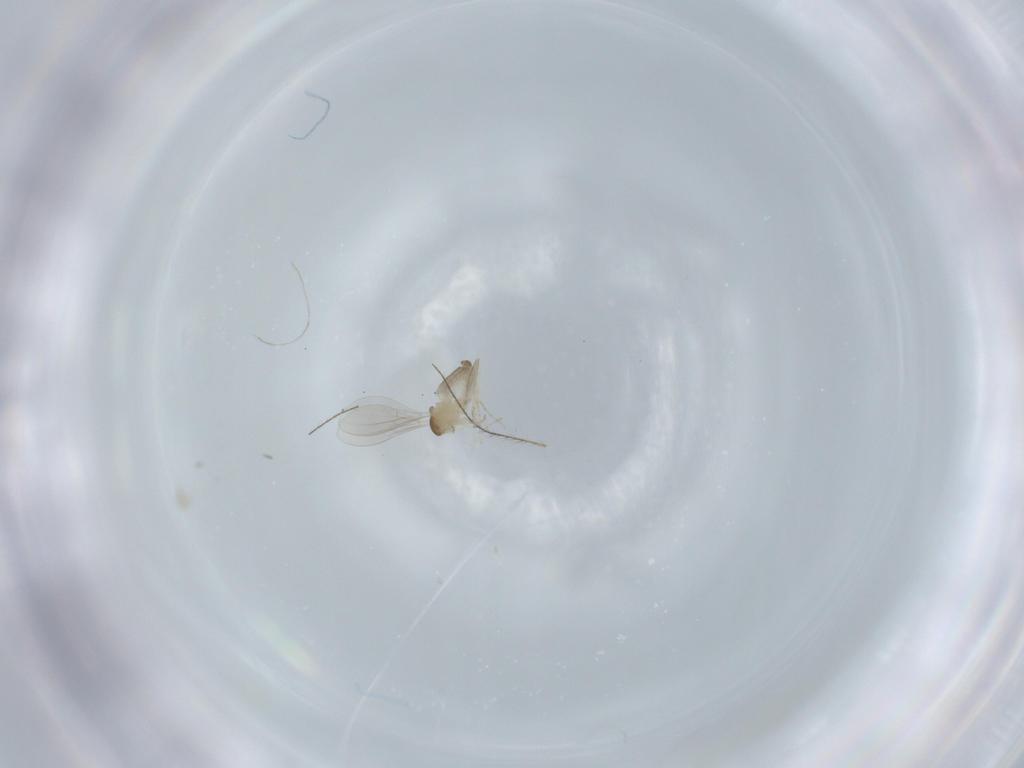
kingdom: Animalia
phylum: Arthropoda
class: Insecta
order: Diptera
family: Cecidomyiidae
